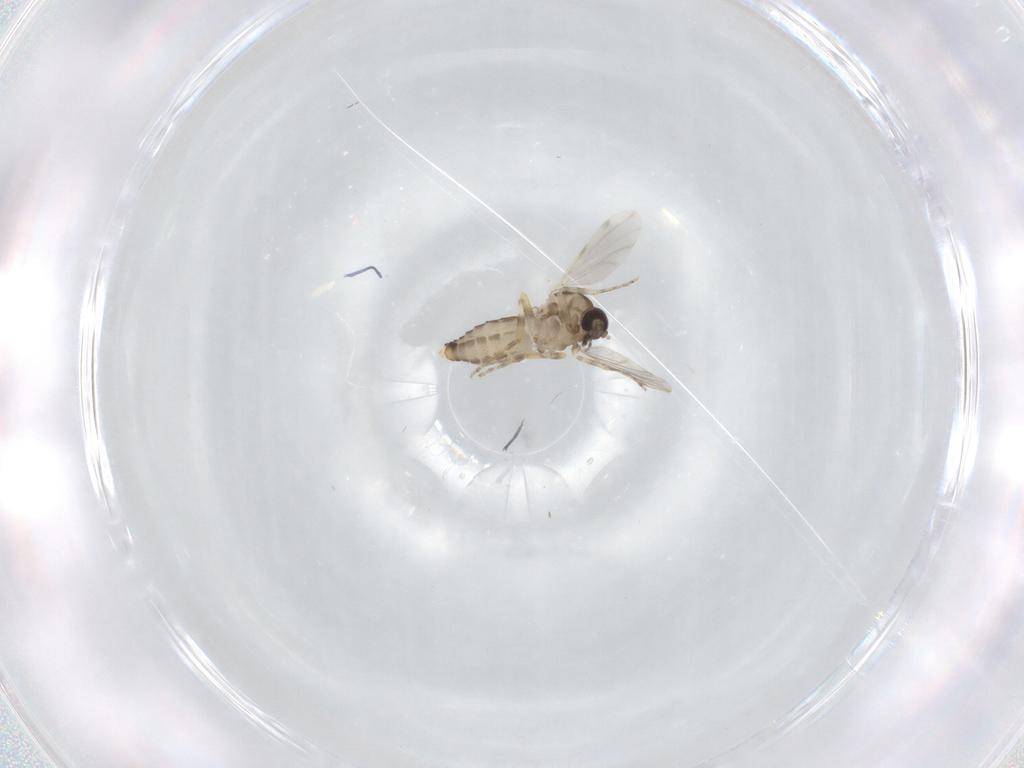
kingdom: Animalia
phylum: Arthropoda
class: Insecta
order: Diptera
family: Ceratopogonidae
